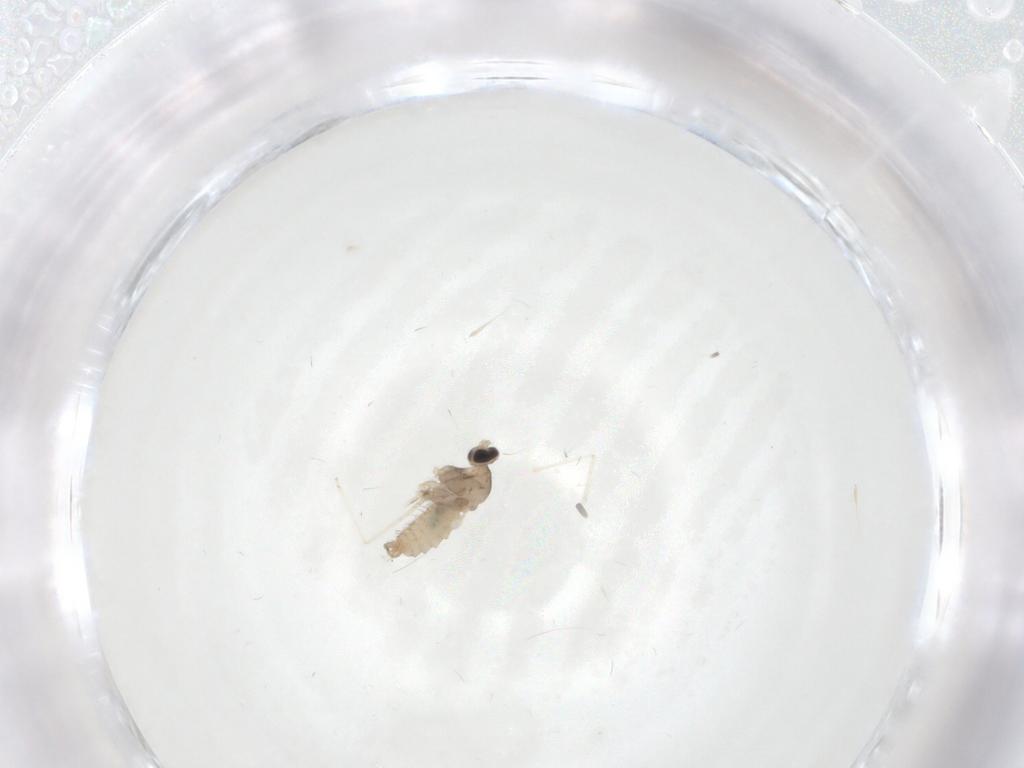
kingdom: Animalia
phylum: Arthropoda
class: Insecta
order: Diptera
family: Cecidomyiidae
